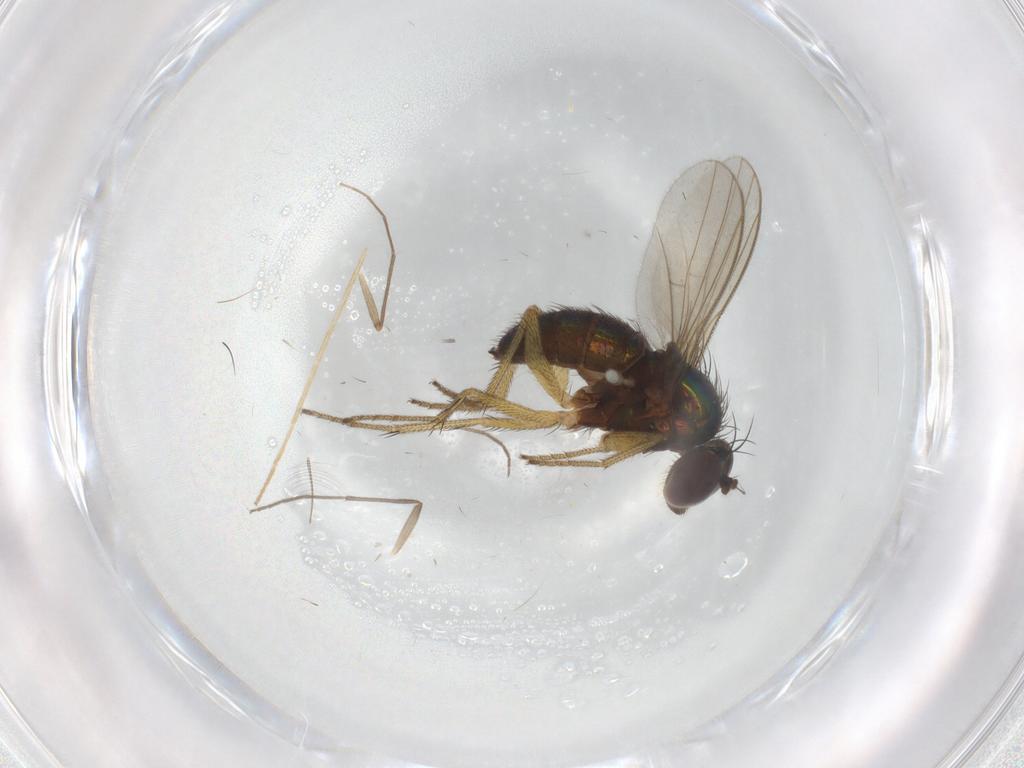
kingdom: Animalia
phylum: Arthropoda
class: Insecta
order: Diptera
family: Chironomidae
